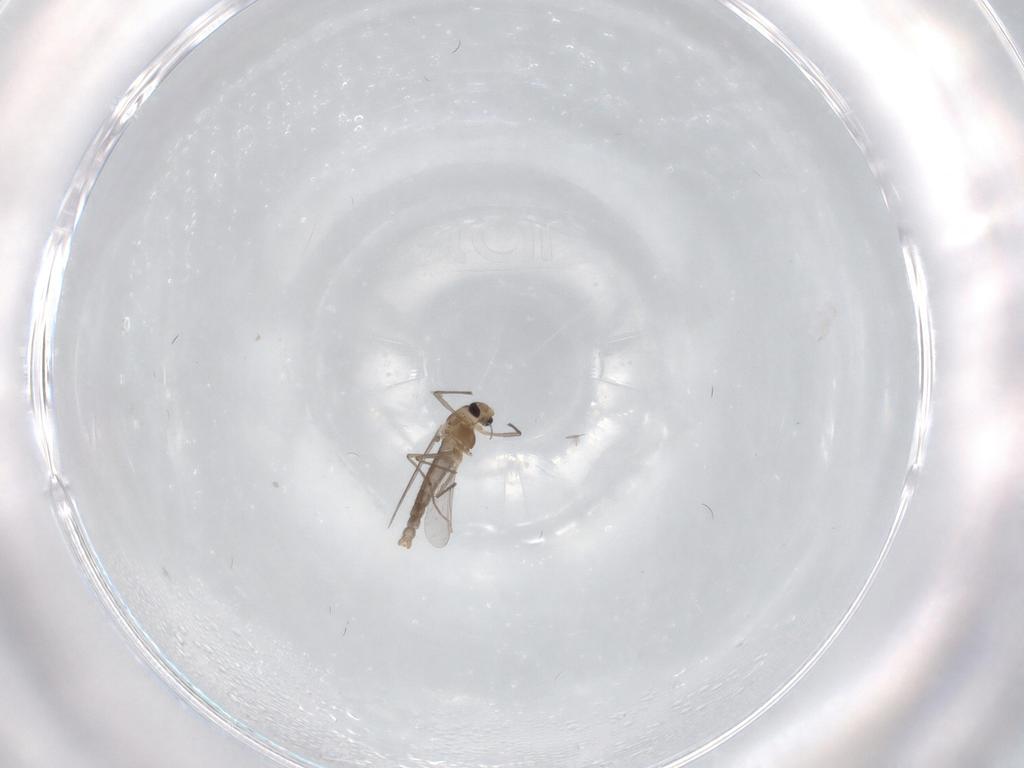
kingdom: Animalia
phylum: Arthropoda
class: Insecta
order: Diptera
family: Chironomidae
